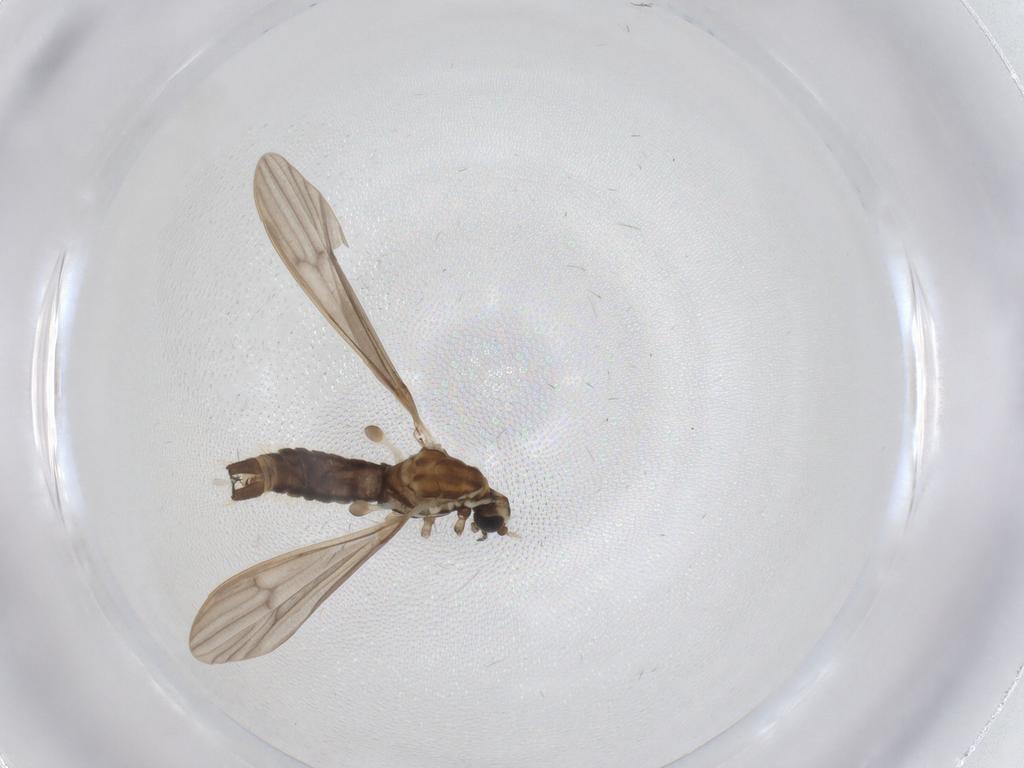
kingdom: Animalia
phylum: Arthropoda
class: Insecta
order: Diptera
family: Limoniidae
